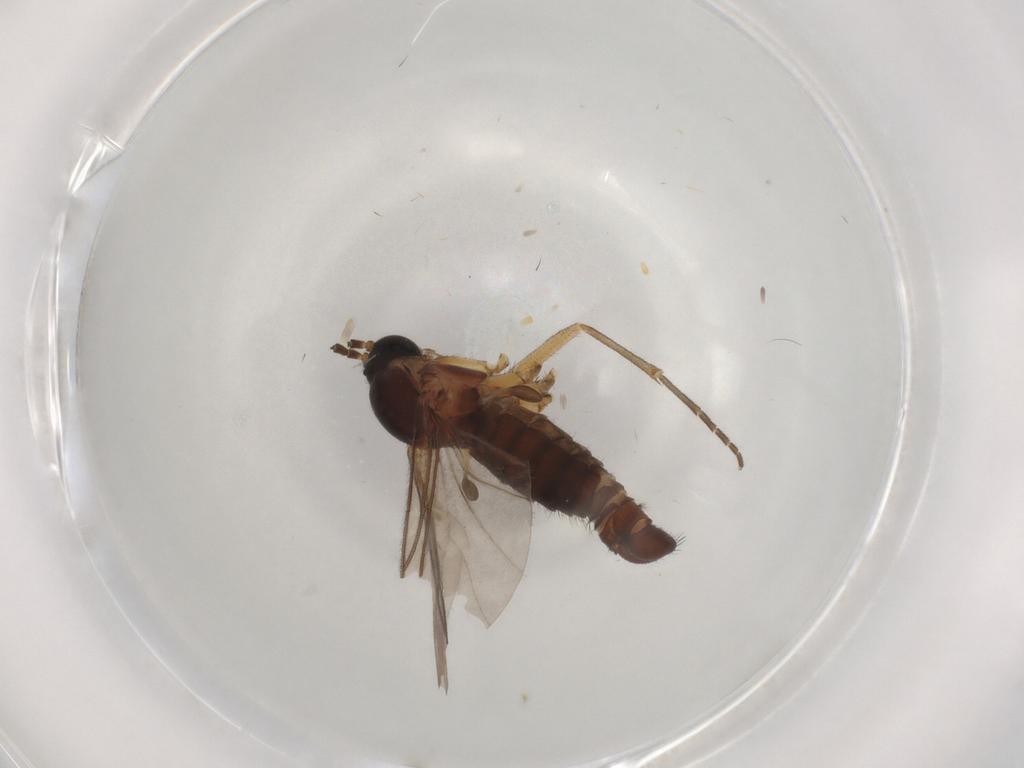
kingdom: Animalia
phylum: Arthropoda
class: Insecta
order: Diptera
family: Ceratopogonidae
